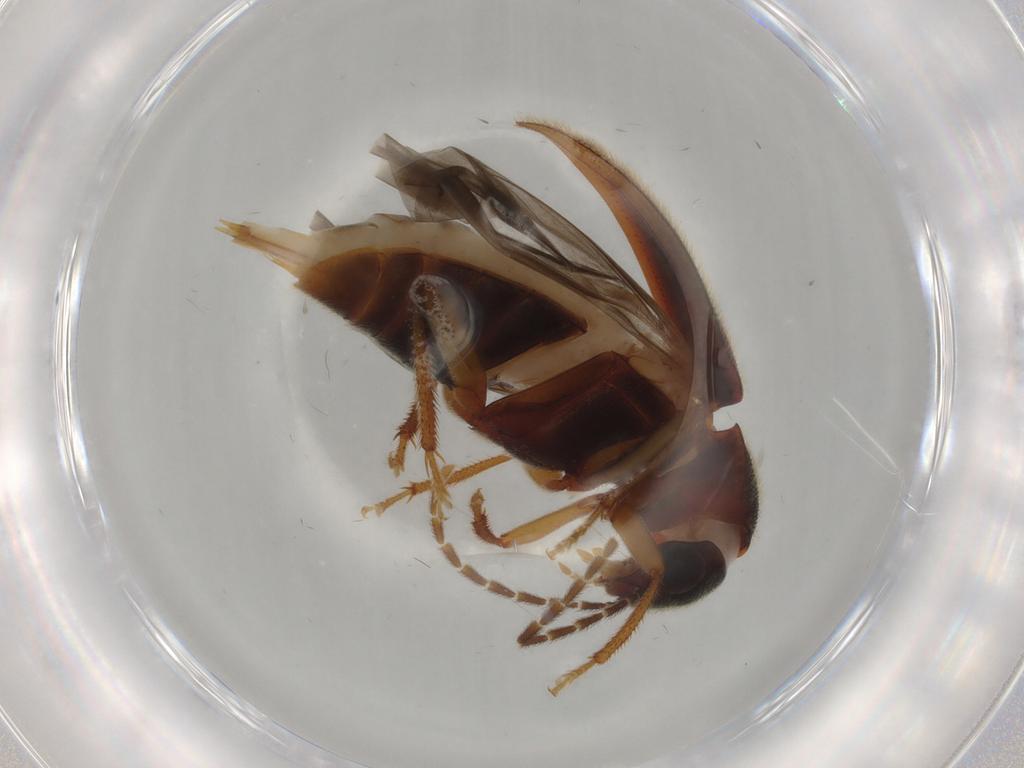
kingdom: Animalia
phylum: Arthropoda
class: Insecta
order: Coleoptera
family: Ptilodactylidae
